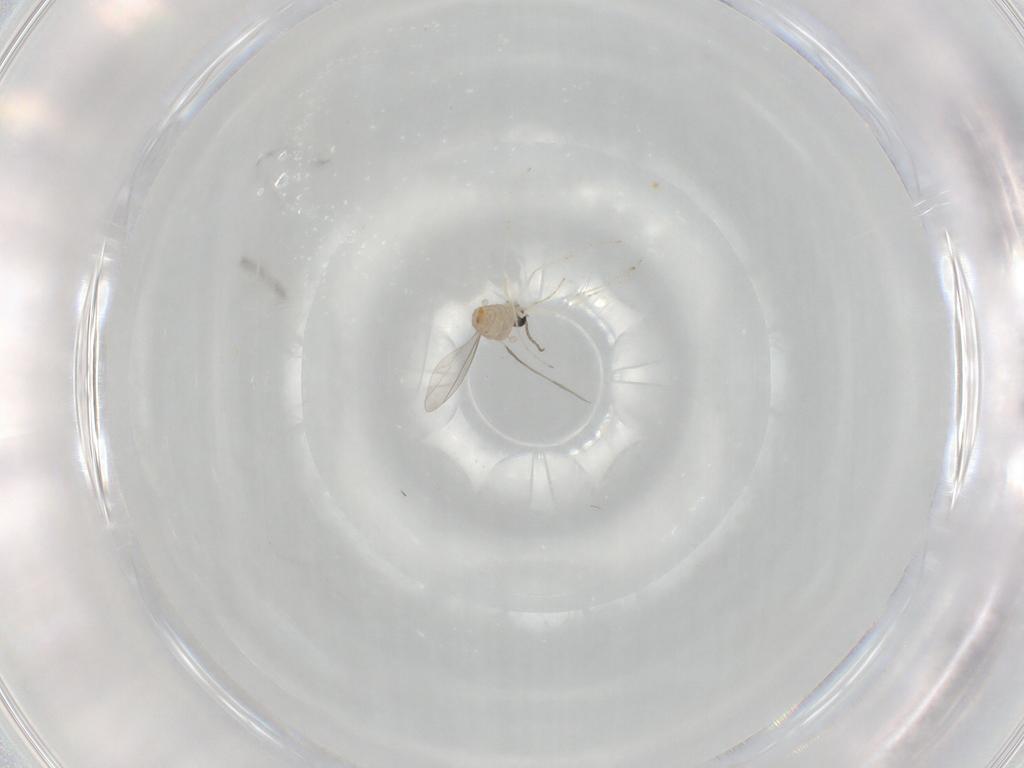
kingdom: Animalia
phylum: Arthropoda
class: Insecta
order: Diptera
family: Cecidomyiidae
